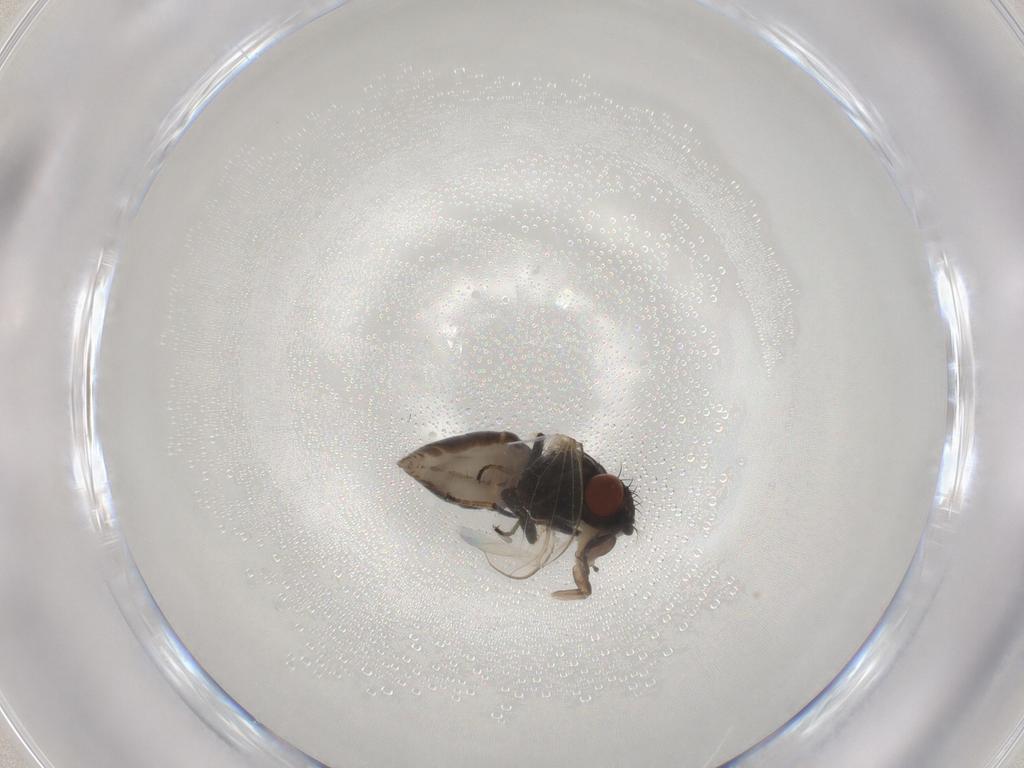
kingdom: Animalia
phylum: Arthropoda
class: Insecta
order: Diptera
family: Ephydridae
